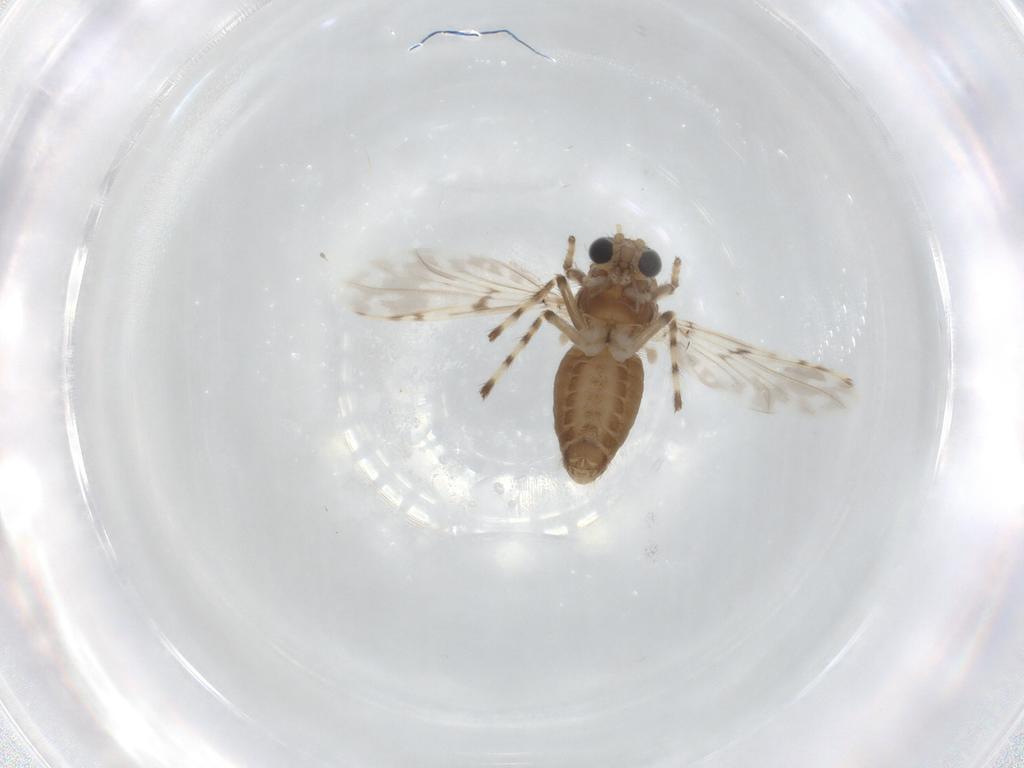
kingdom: Animalia
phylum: Arthropoda
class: Insecta
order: Diptera
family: Chironomidae
